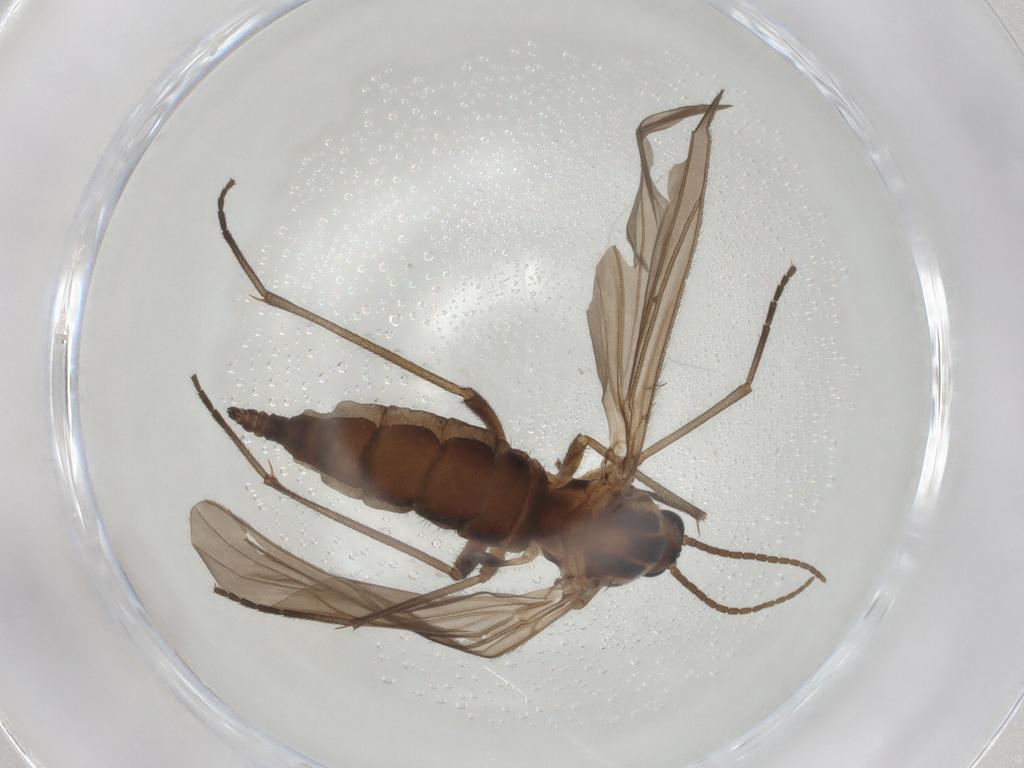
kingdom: Animalia
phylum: Arthropoda
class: Insecta
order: Diptera
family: Sciaridae
